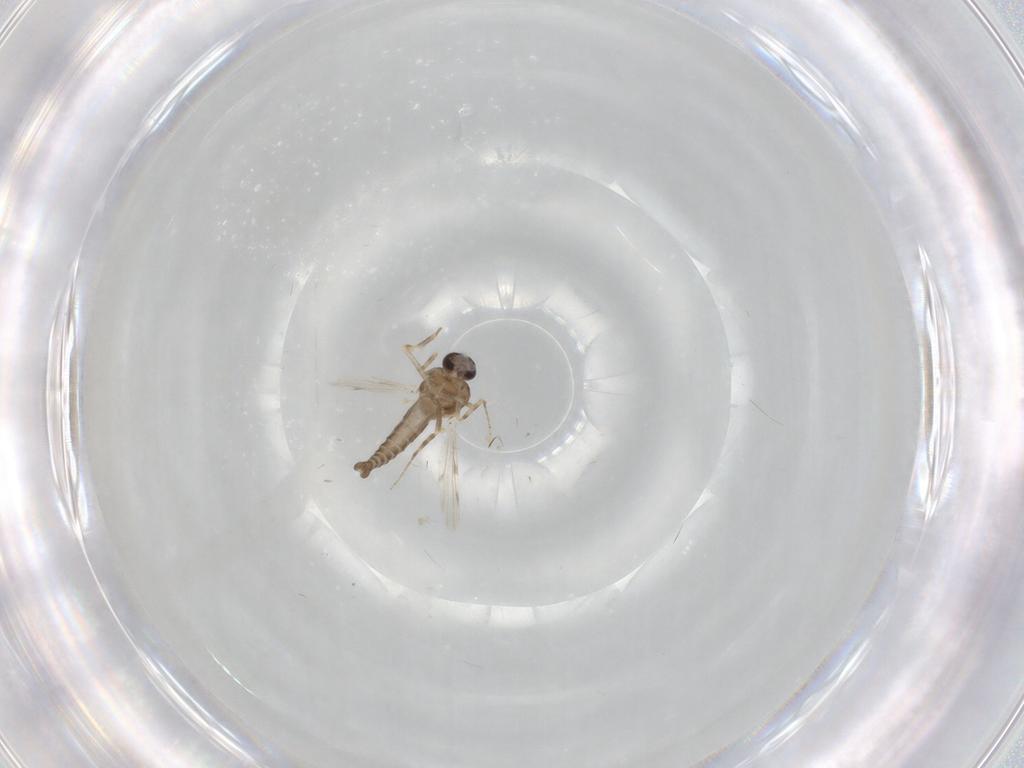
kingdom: Animalia
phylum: Arthropoda
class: Insecta
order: Diptera
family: Ceratopogonidae
